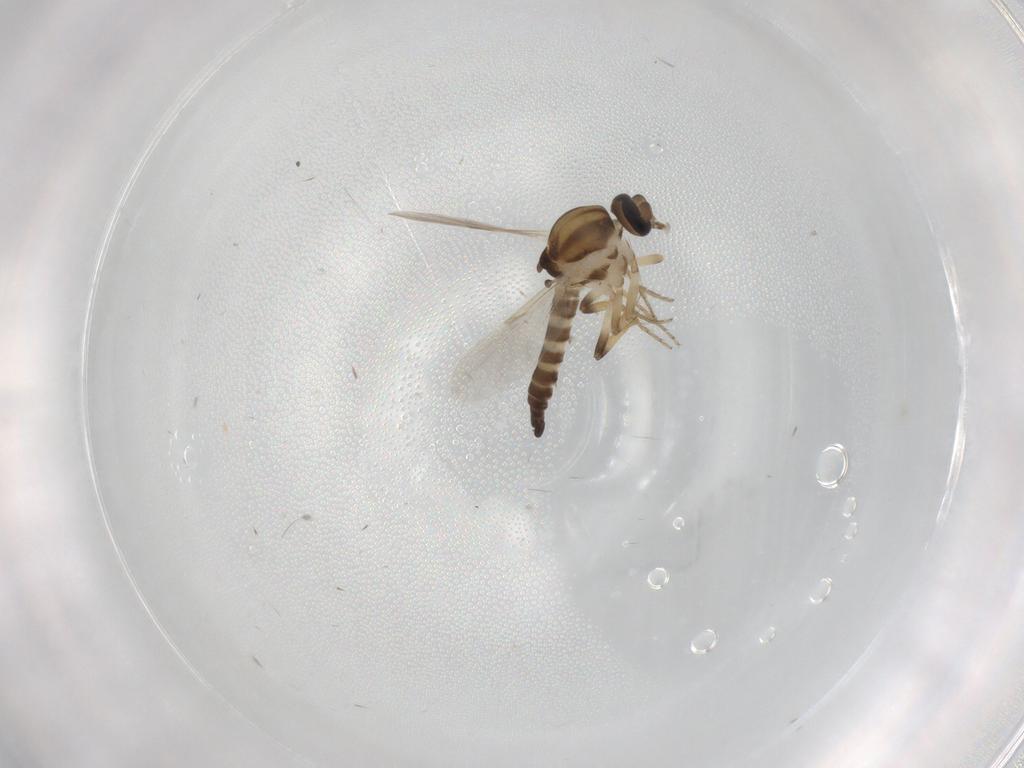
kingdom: Animalia
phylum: Arthropoda
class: Insecta
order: Diptera
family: Ceratopogonidae
